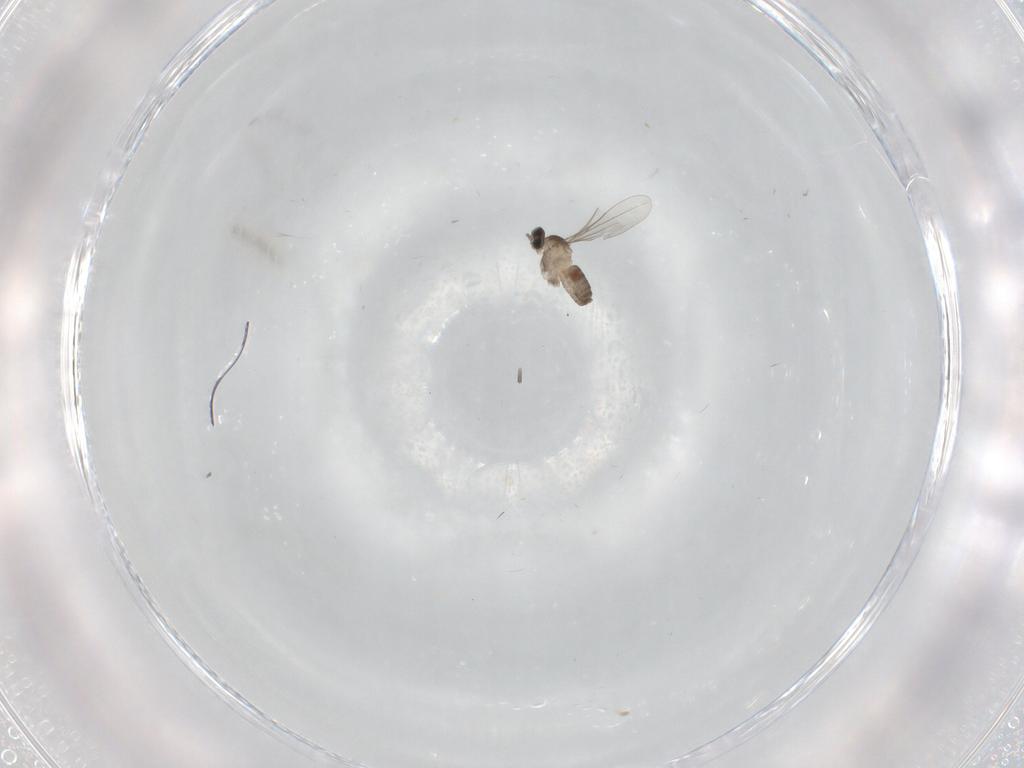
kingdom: Animalia
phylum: Arthropoda
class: Insecta
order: Diptera
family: Cecidomyiidae
